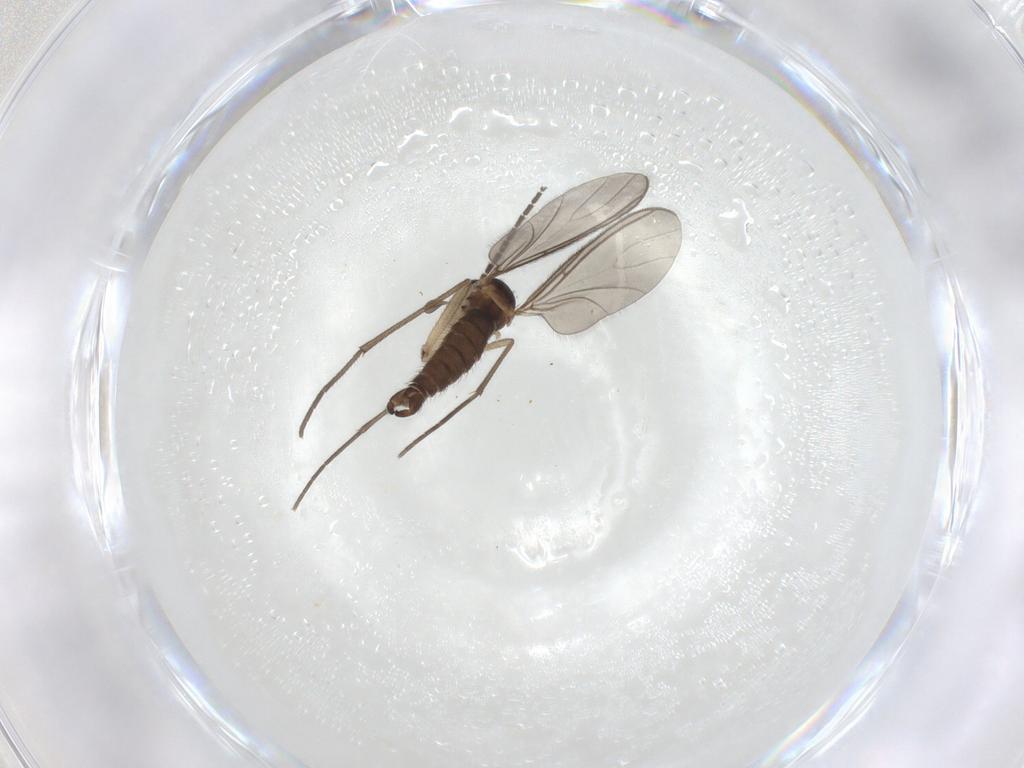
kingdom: Animalia
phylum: Arthropoda
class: Insecta
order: Diptera
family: Sciaridae
